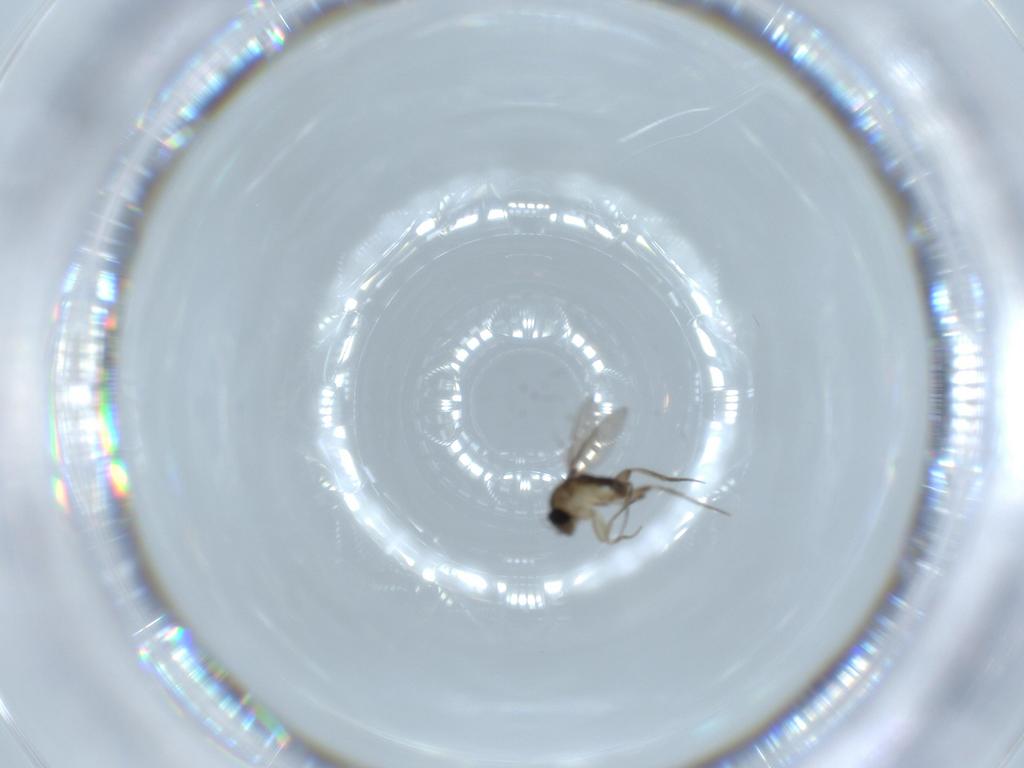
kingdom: Animalia
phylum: Arthropoda
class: Insecta
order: Diptera
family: Phoridae
